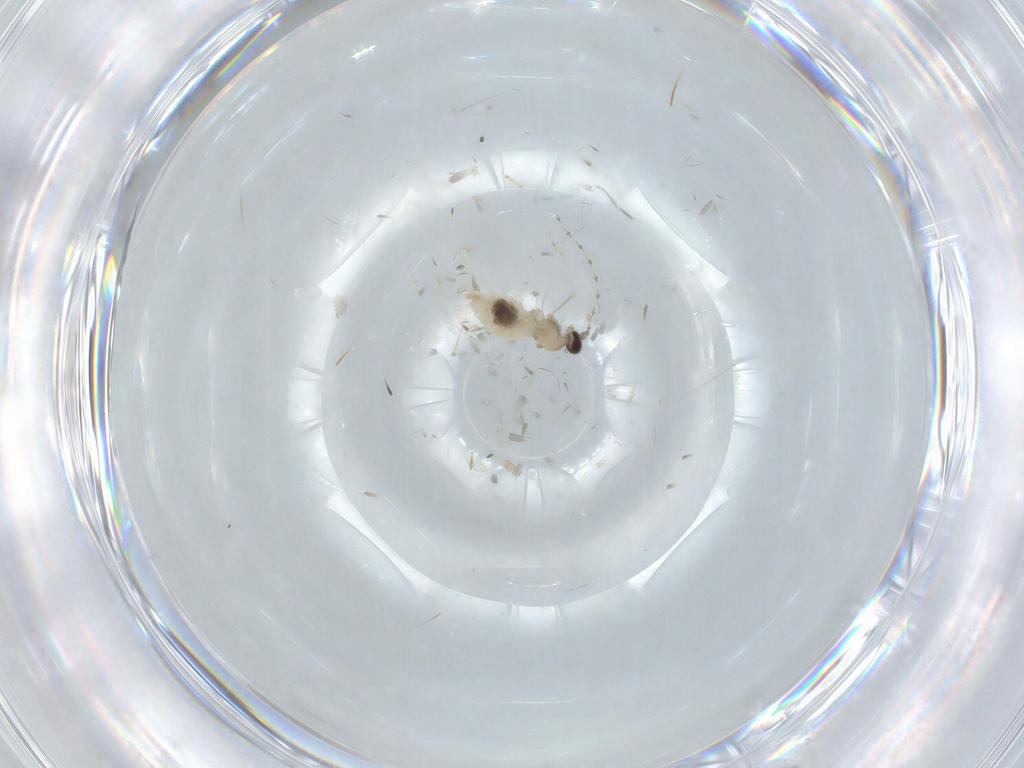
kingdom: Animalia
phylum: Arthropoda
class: Insecta
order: Diptera
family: Cecidomyiidae
